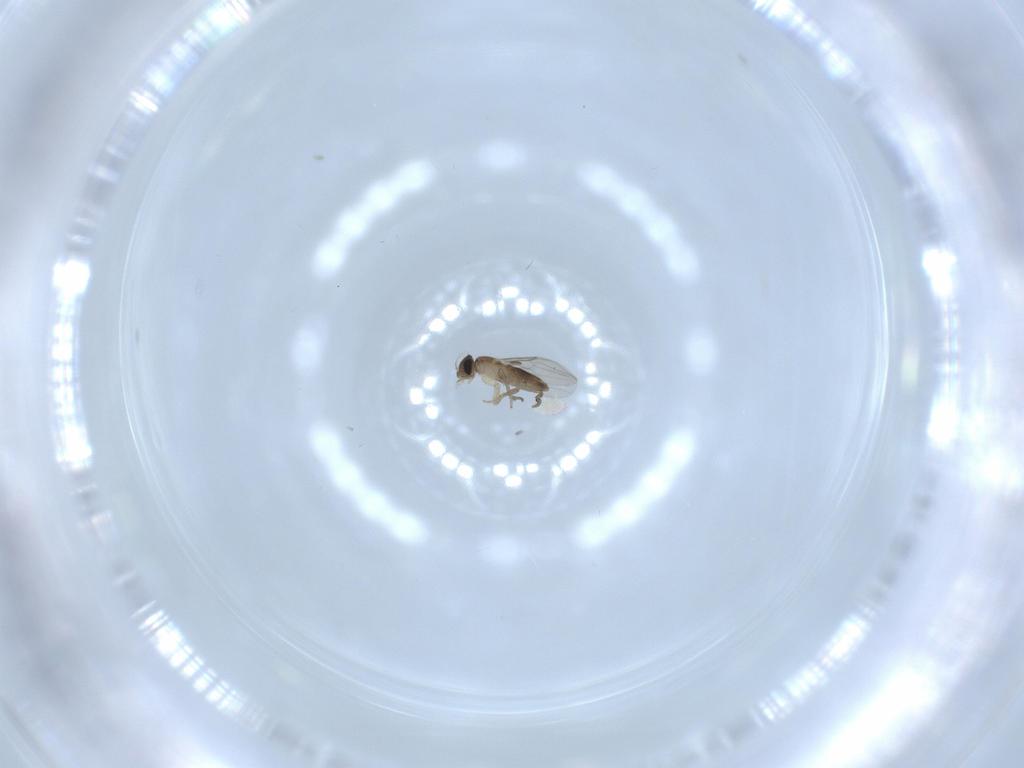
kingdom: Animalia
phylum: Arthropoda
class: Insecta
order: Diptera
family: Phoridae
